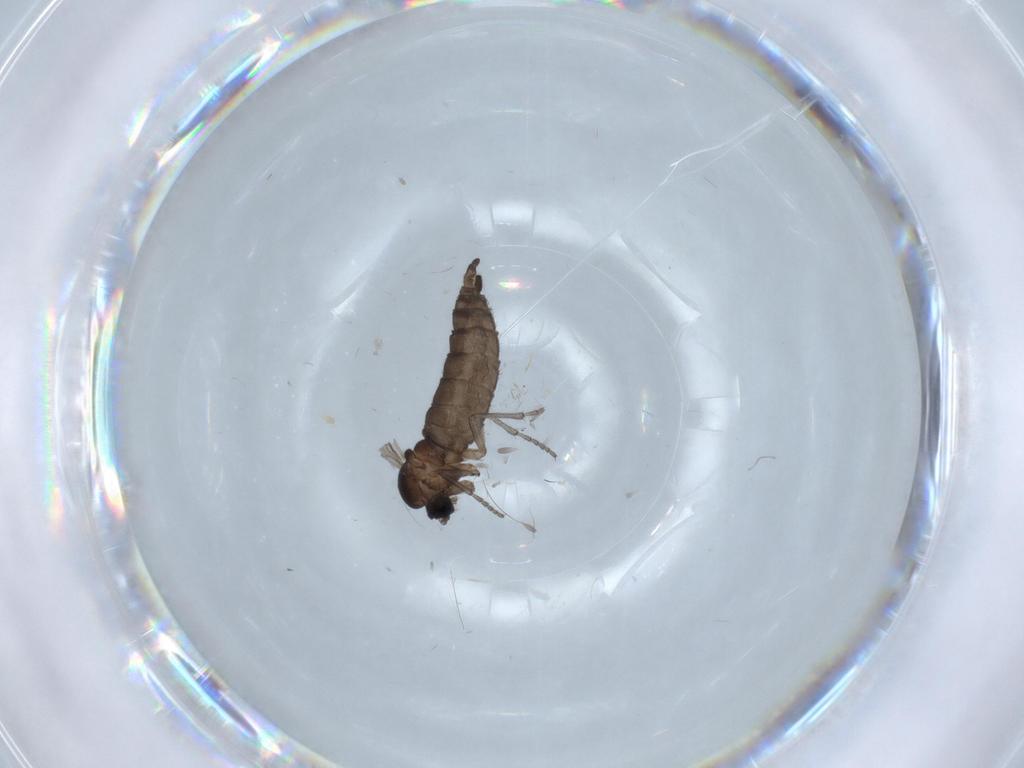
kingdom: Animalia
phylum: Arthropoda
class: Insecta
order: Diptera
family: Sciaridae
